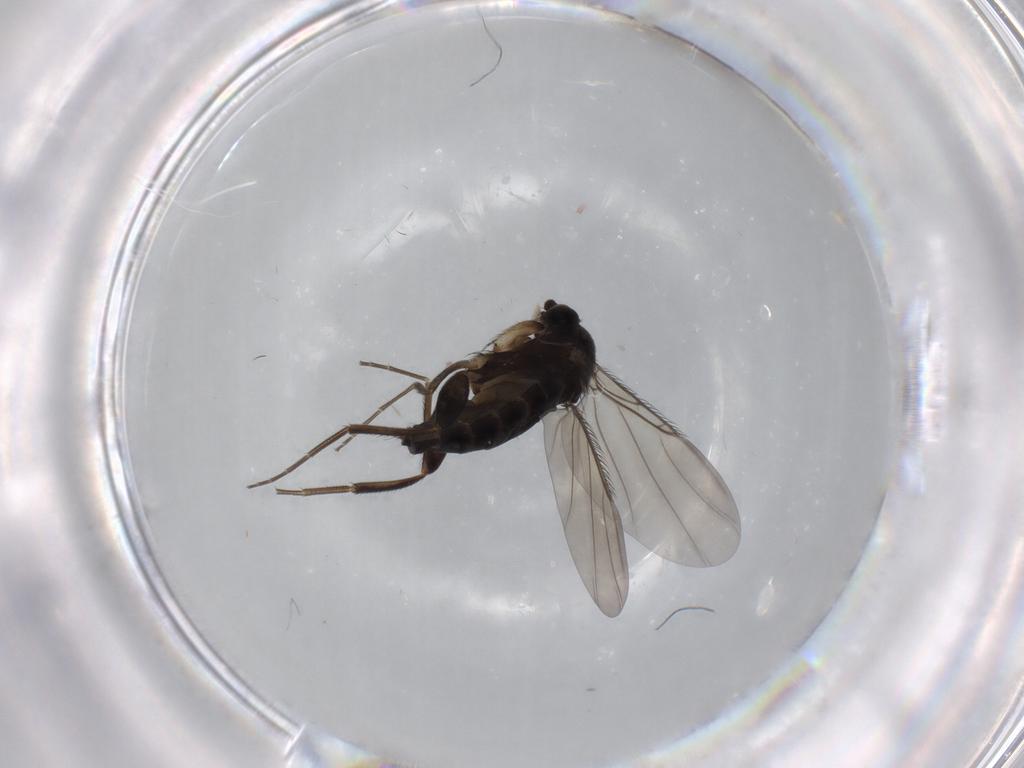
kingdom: Animalia
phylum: Arthropoda
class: Insecta
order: Diptera
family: Phoridae
